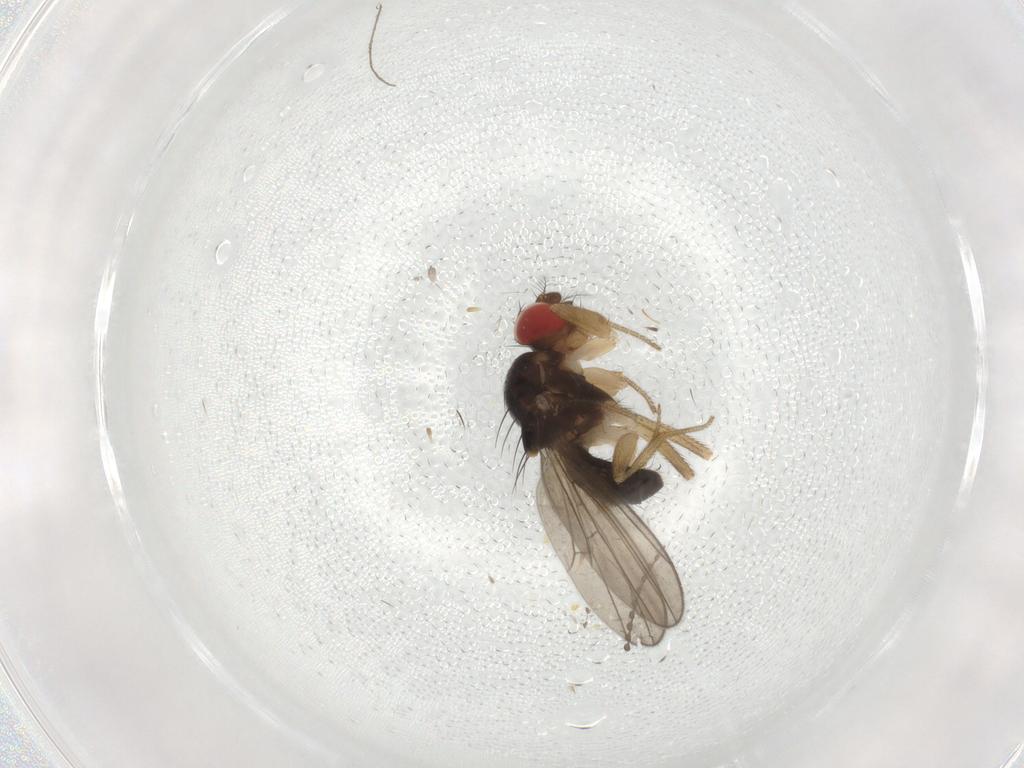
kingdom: Animalia
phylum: Arthropoda
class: Insecta
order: Diptera
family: Drosophilidae
